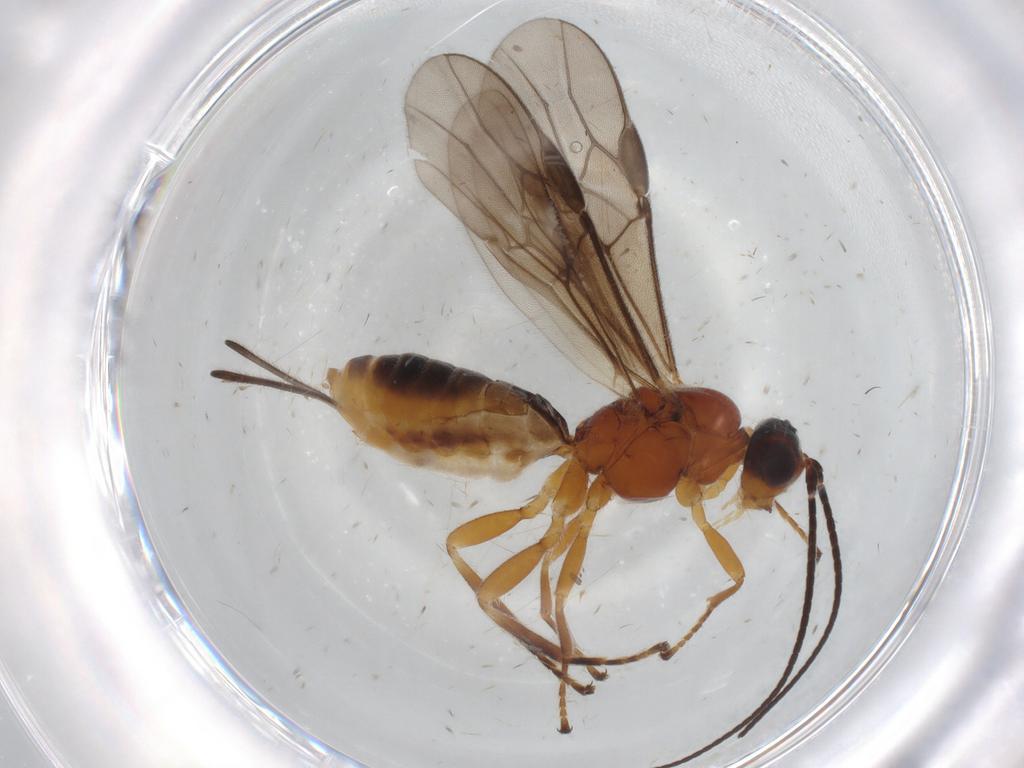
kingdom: Animalia
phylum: Arthropoda
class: Insecta
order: Hymenoptera
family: Braconidae
